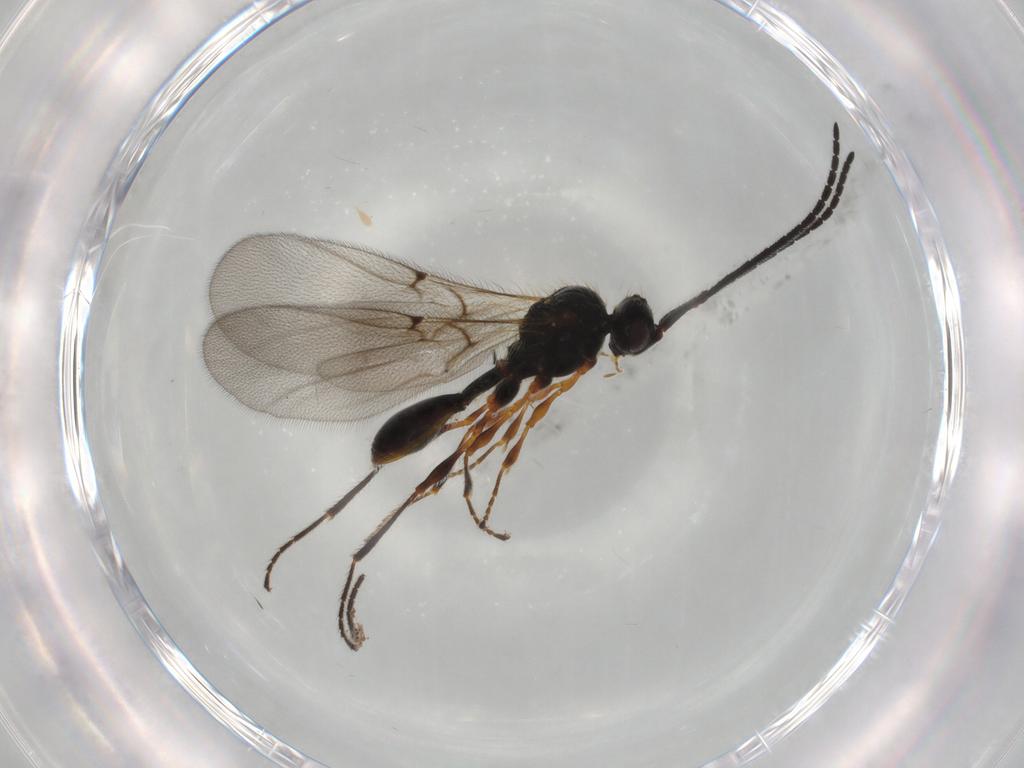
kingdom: Animalia
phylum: Arthropoda
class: Insecta
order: Hymenoptera
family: Diapriidae
